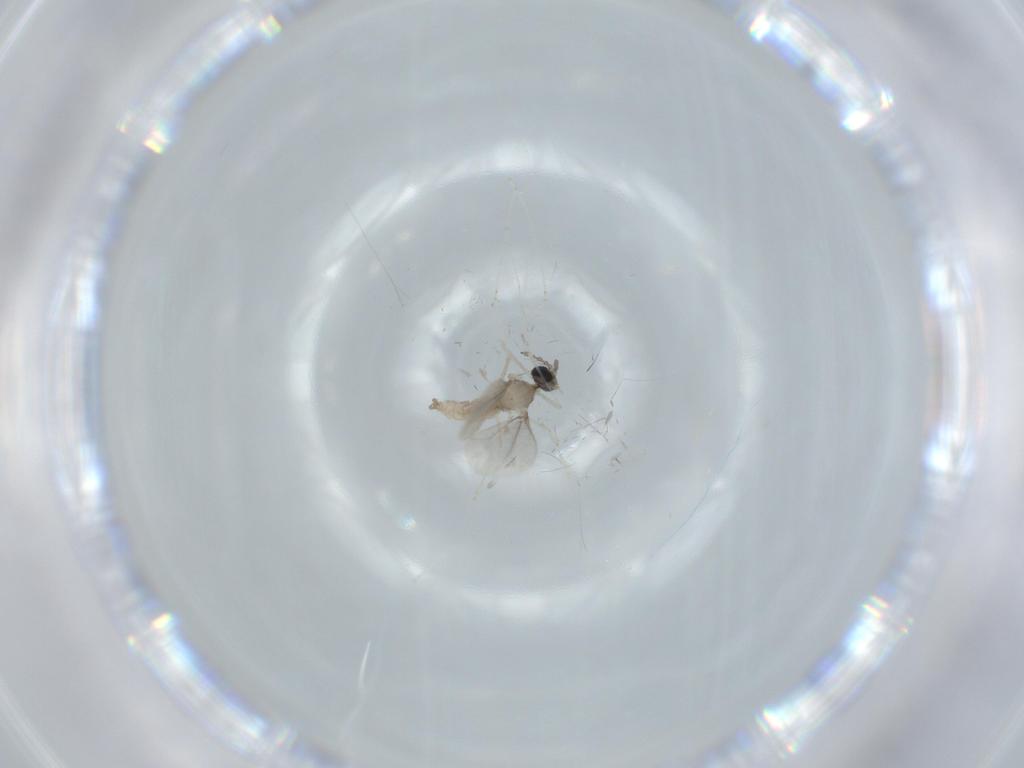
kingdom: Animalia
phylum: Arthropoda
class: Insecta
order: Diptera
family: Cecidomyiidae
